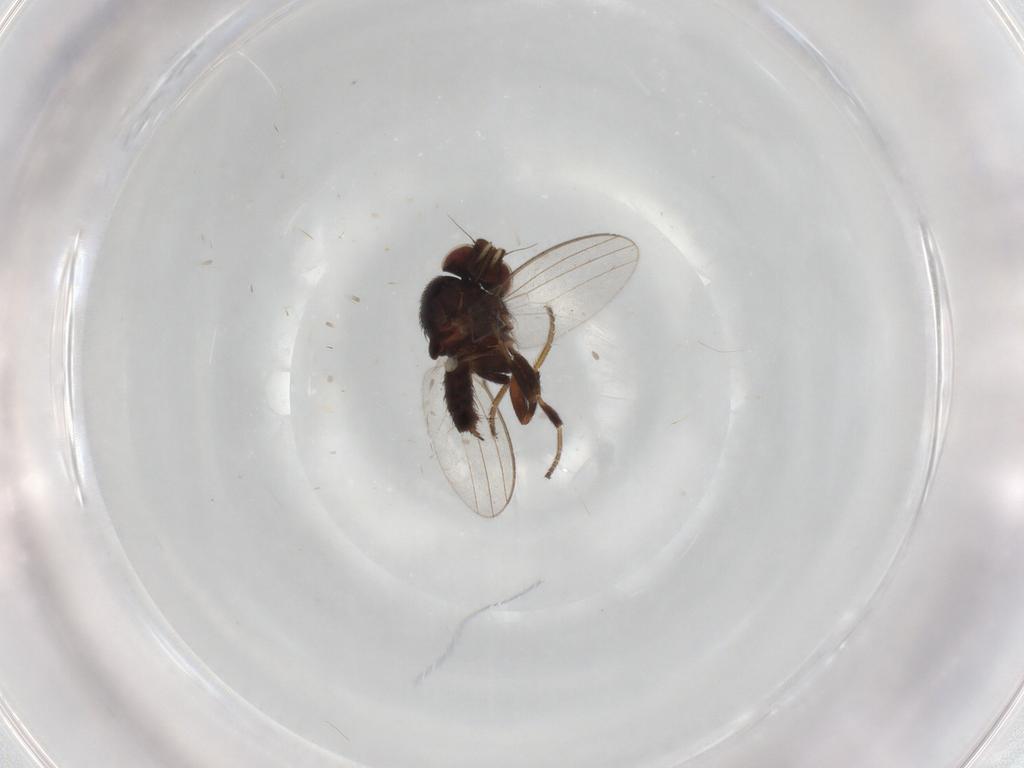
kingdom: Animalia
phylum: Arthropoda
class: Insecta
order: Diptera
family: Cecidomyiidae
